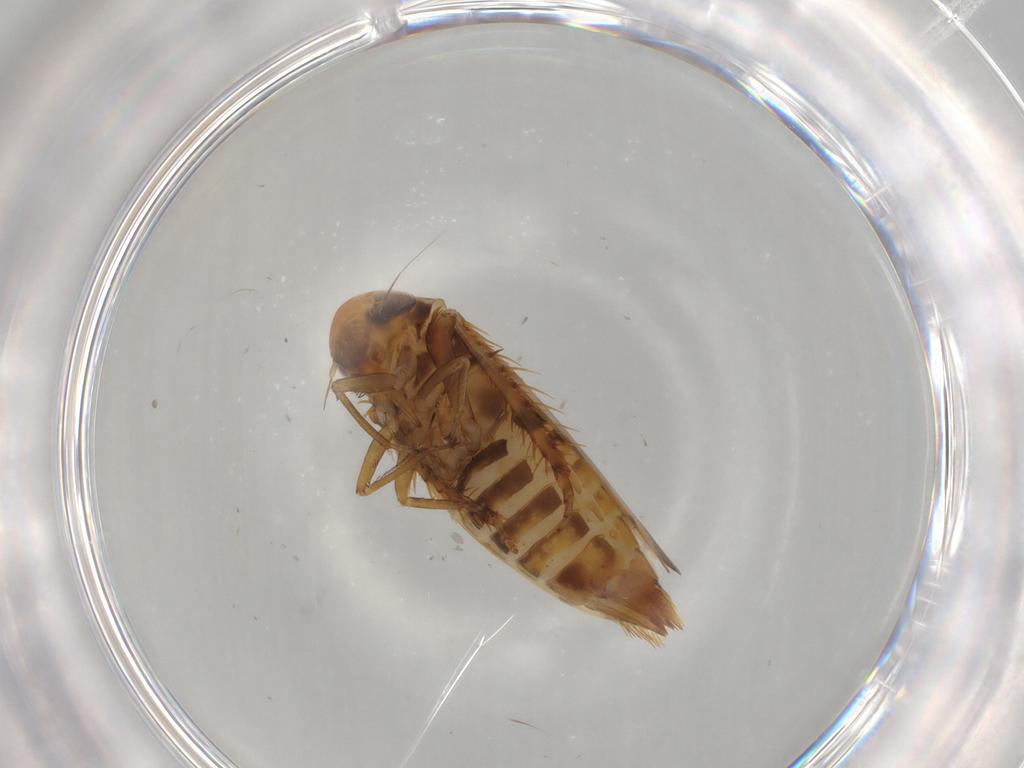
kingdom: Animalia
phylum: Arthropoda
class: Insecta
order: Hemiptera
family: Cicadellidae
